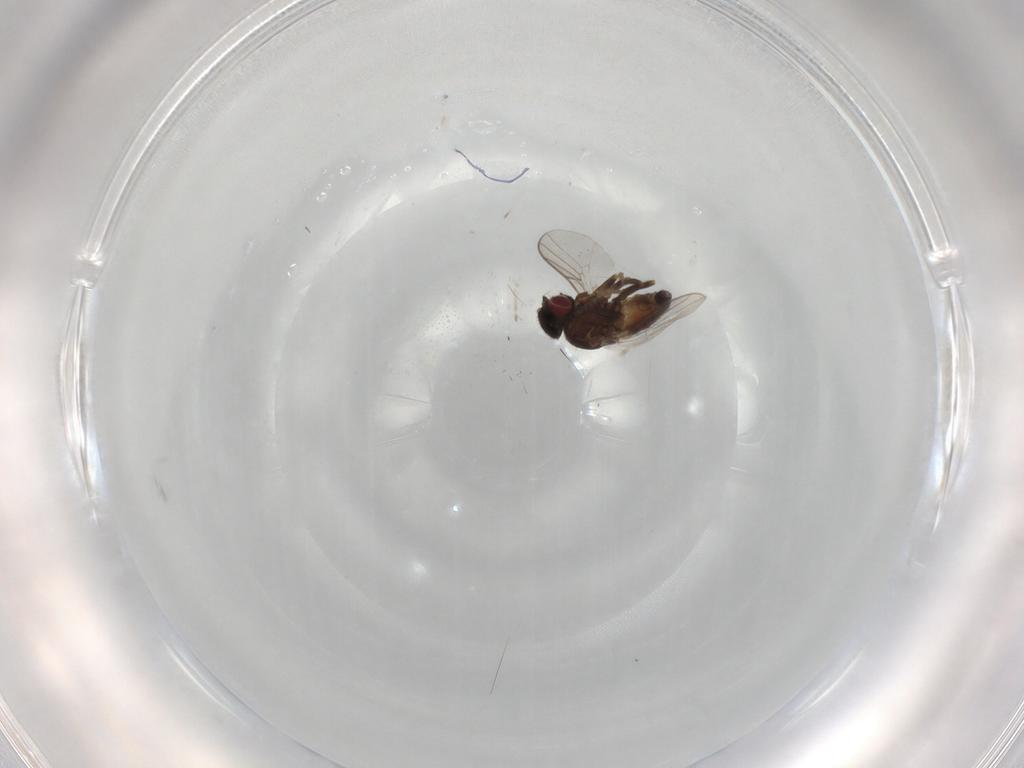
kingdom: Animalia
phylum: Arthropoda
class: Insecta
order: Diptera
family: Chloropidae
